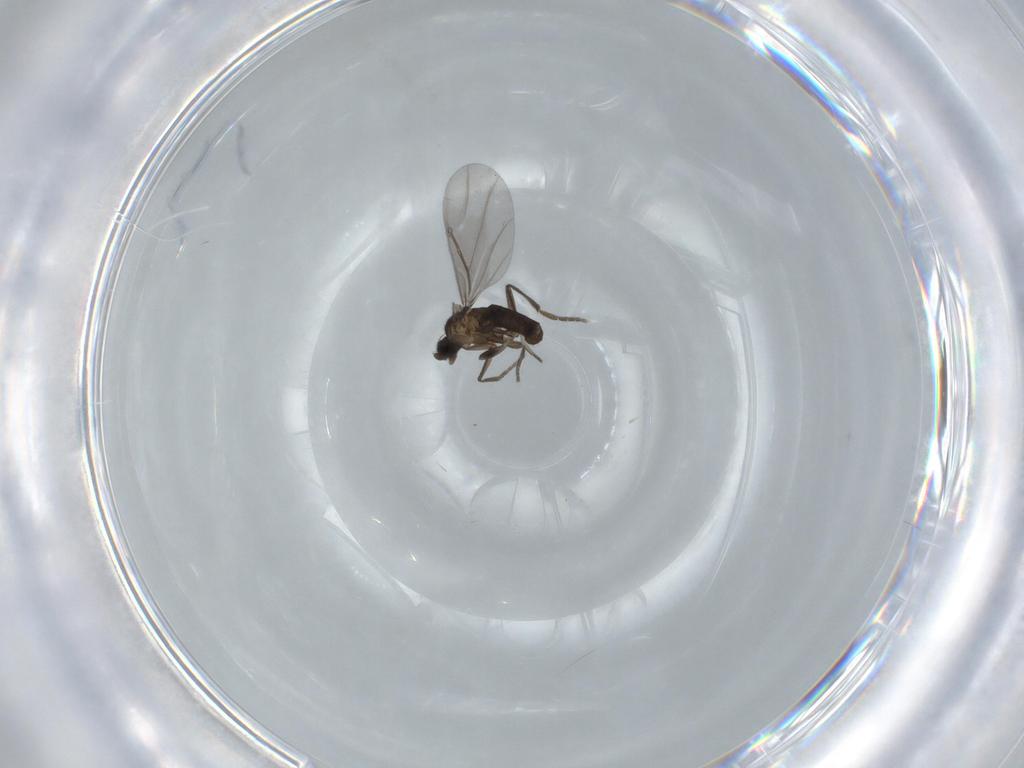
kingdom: Animalia
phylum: Arthropoda
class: Insecta
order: Diptera
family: Phoridae
